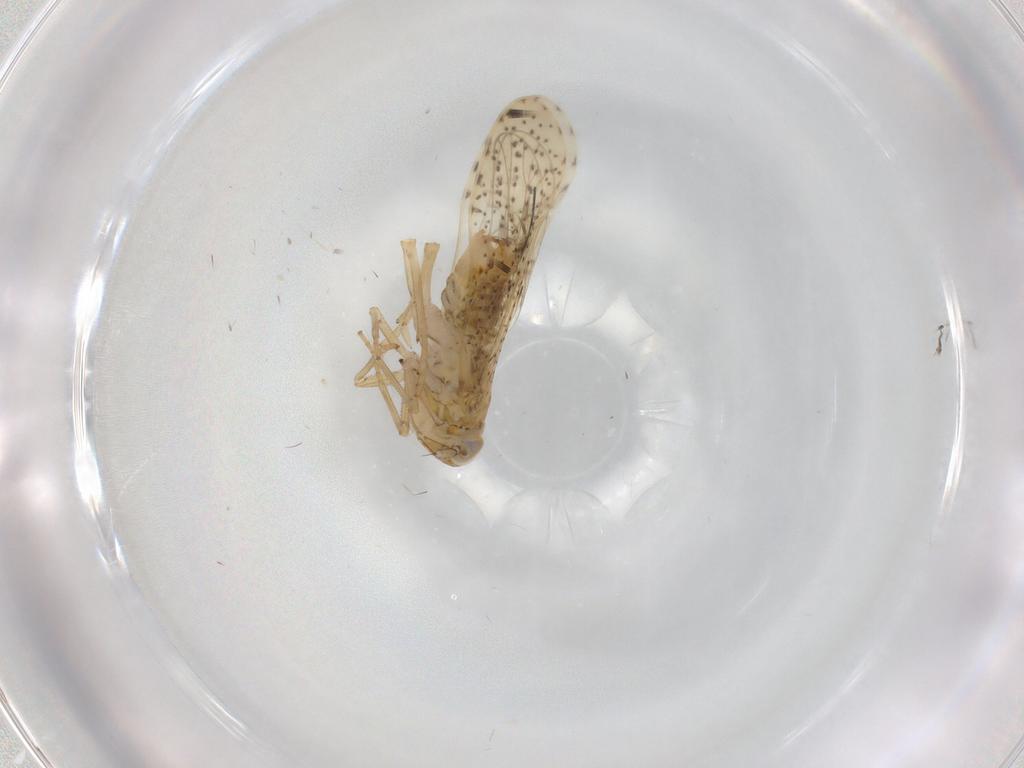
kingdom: Animalia
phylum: Arthropoda
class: Insecta
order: Hemiptera
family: Delphacidae
